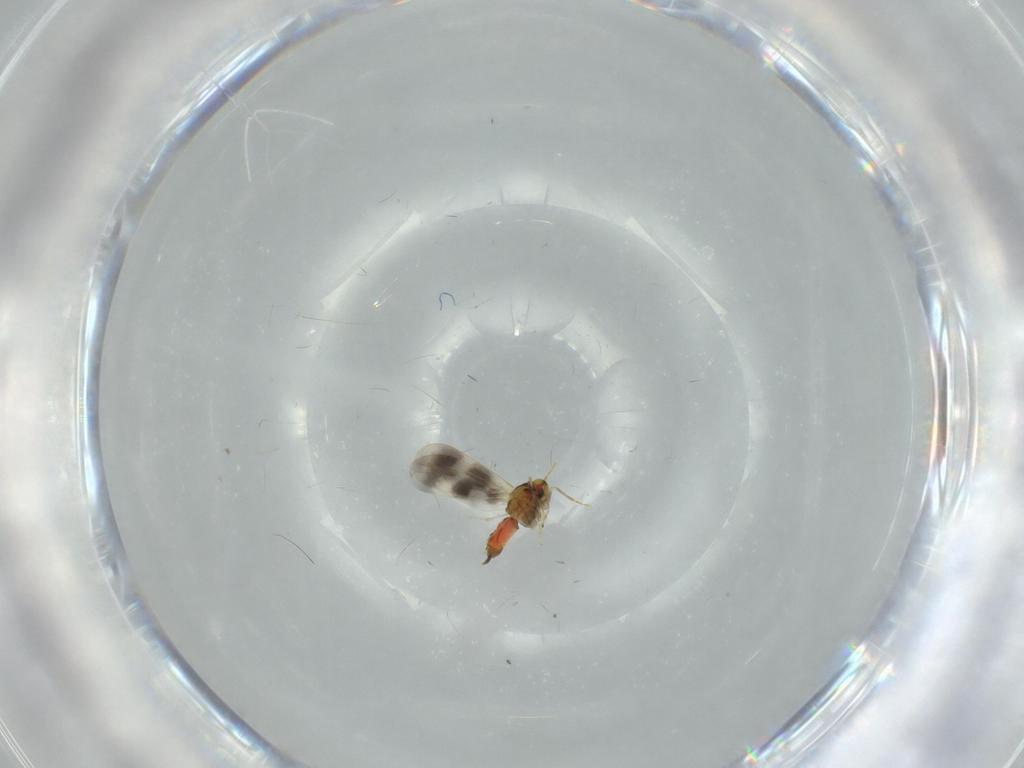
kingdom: Animalia
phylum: Arthropoda
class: Insecta
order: Hemiptera
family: Aleyrodidae
